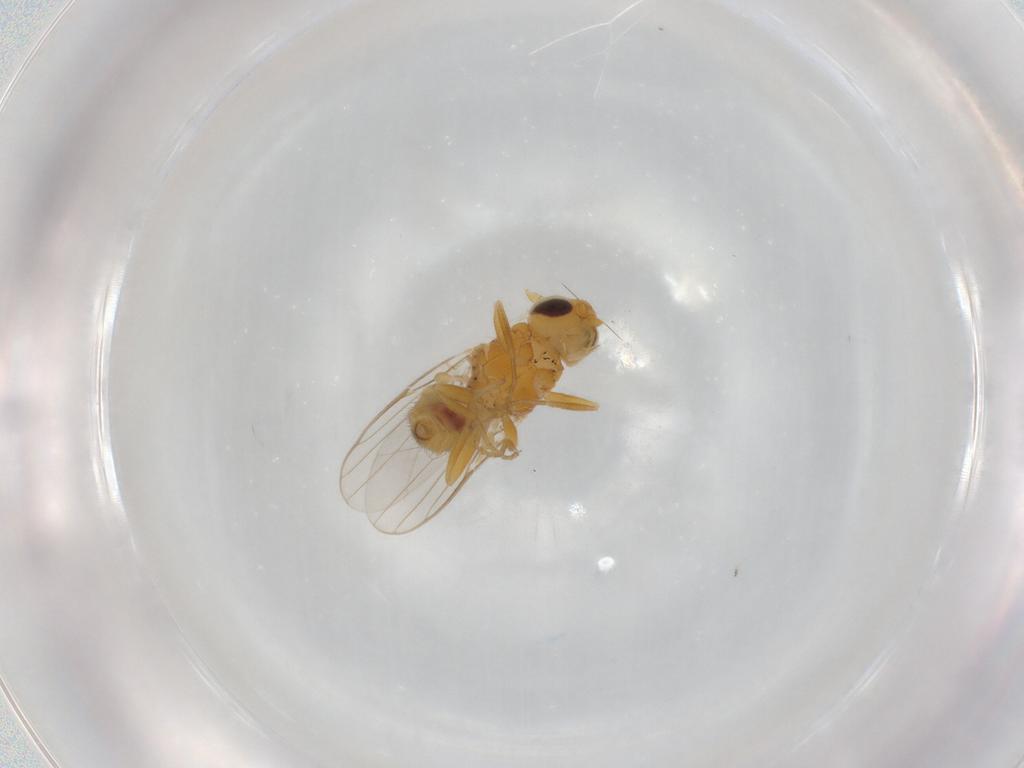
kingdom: Animalia
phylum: Arthropoda
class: Insecta
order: Diptera
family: Chloropidae
